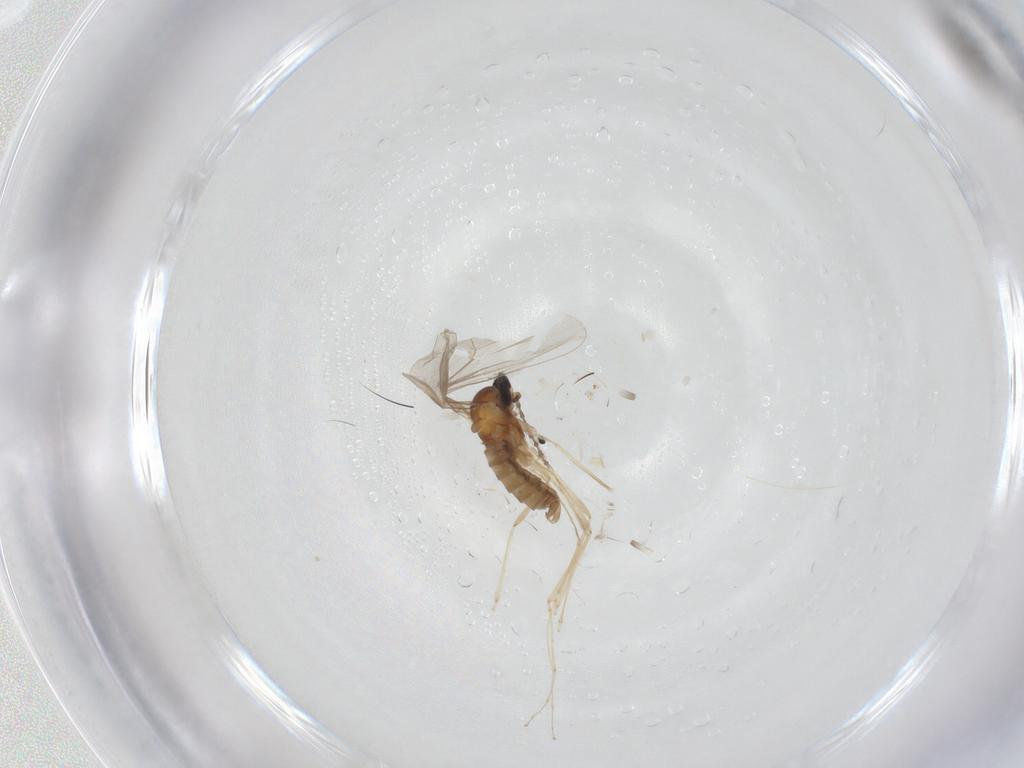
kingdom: Animalia
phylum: Arthropoda
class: Insecta
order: Diptera
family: Cecidomyiidae
